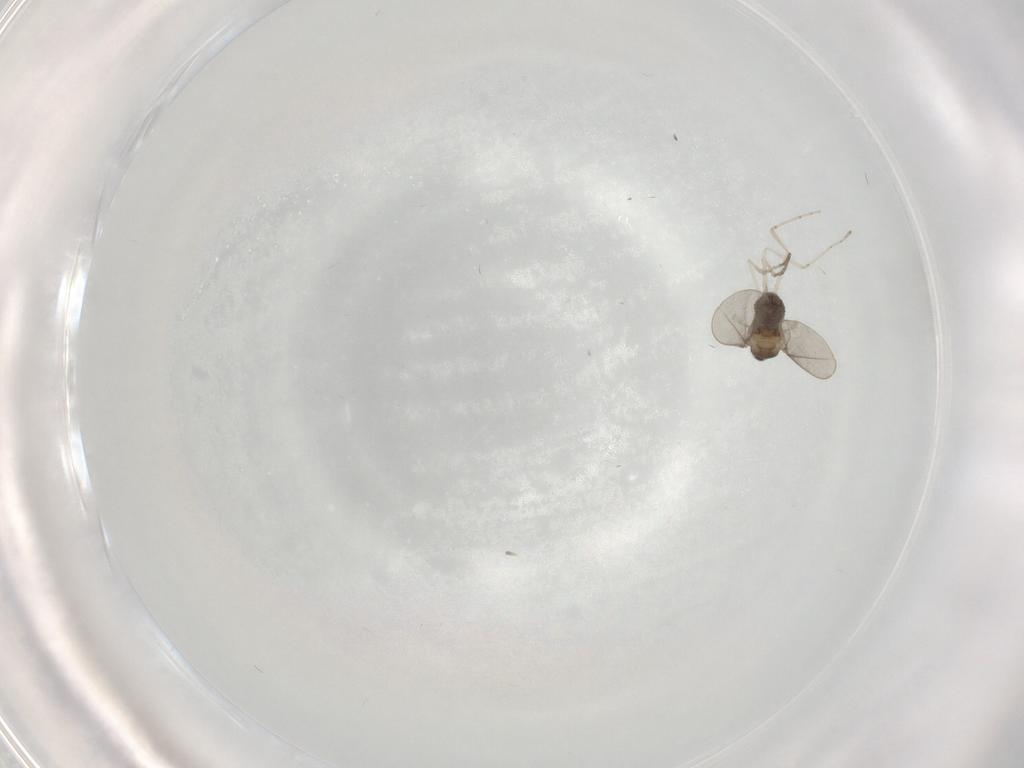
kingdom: Animalia
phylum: Arthropoda
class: Insecta
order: Diptera
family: Cecidomyiidae
